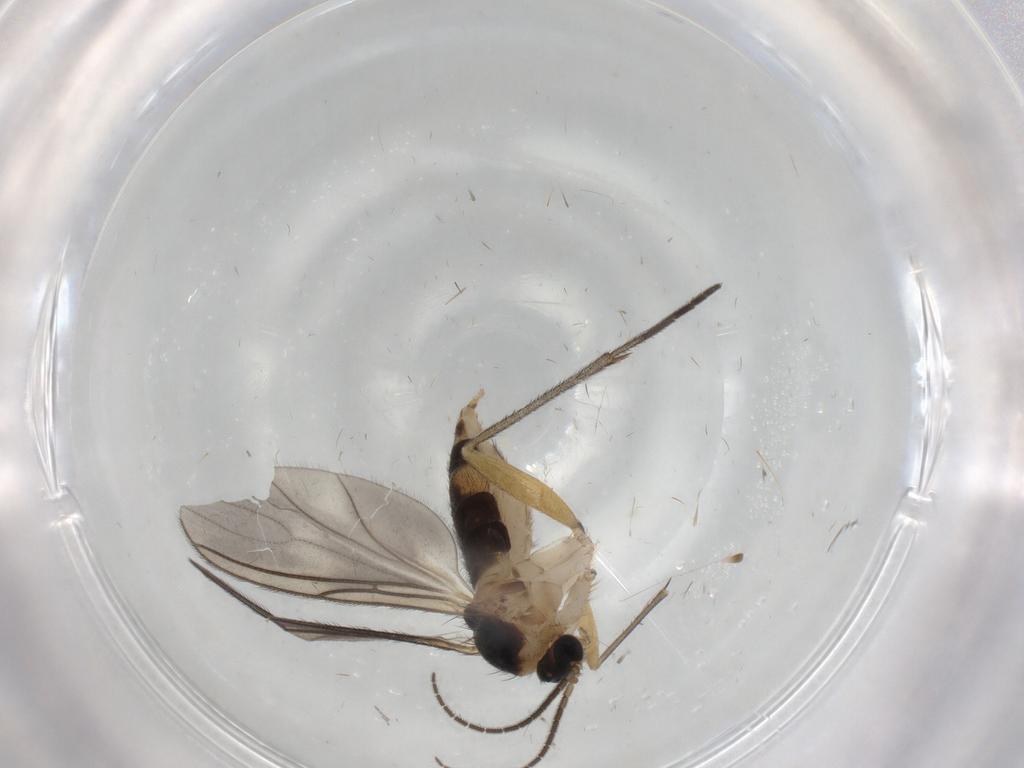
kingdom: Animalia
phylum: Arthropoda
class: Insecta
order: Diptera
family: Sciaridae
